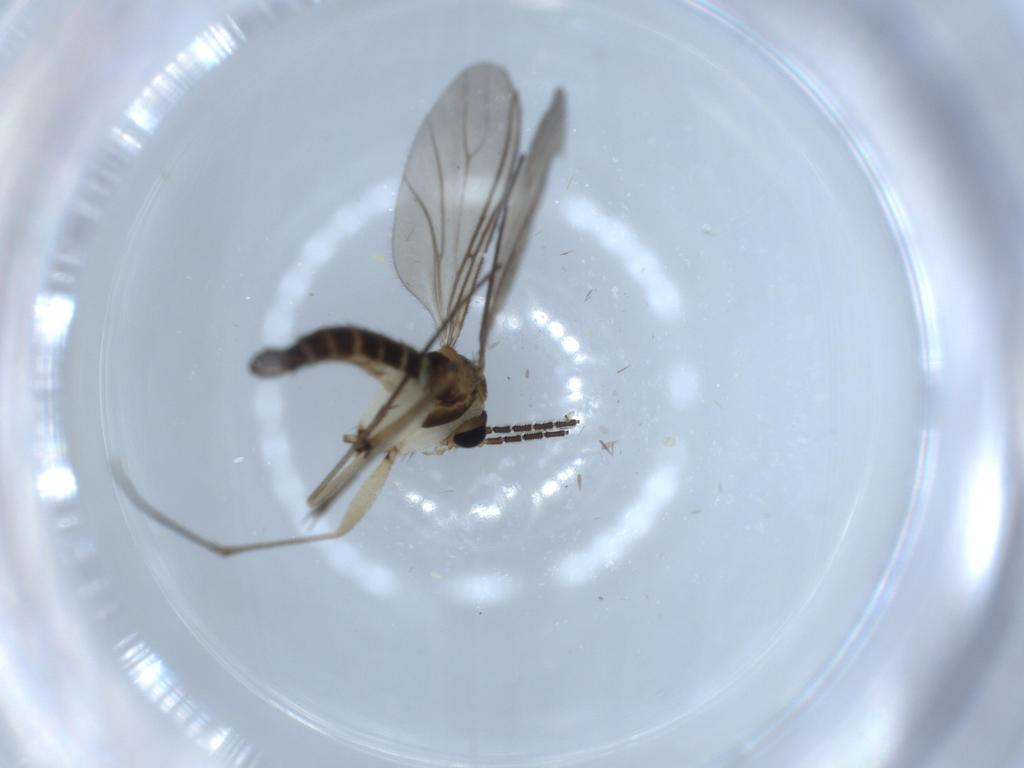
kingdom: Animalia
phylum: Arthropoda
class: Insecta
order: Diptera
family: Sciaridae
